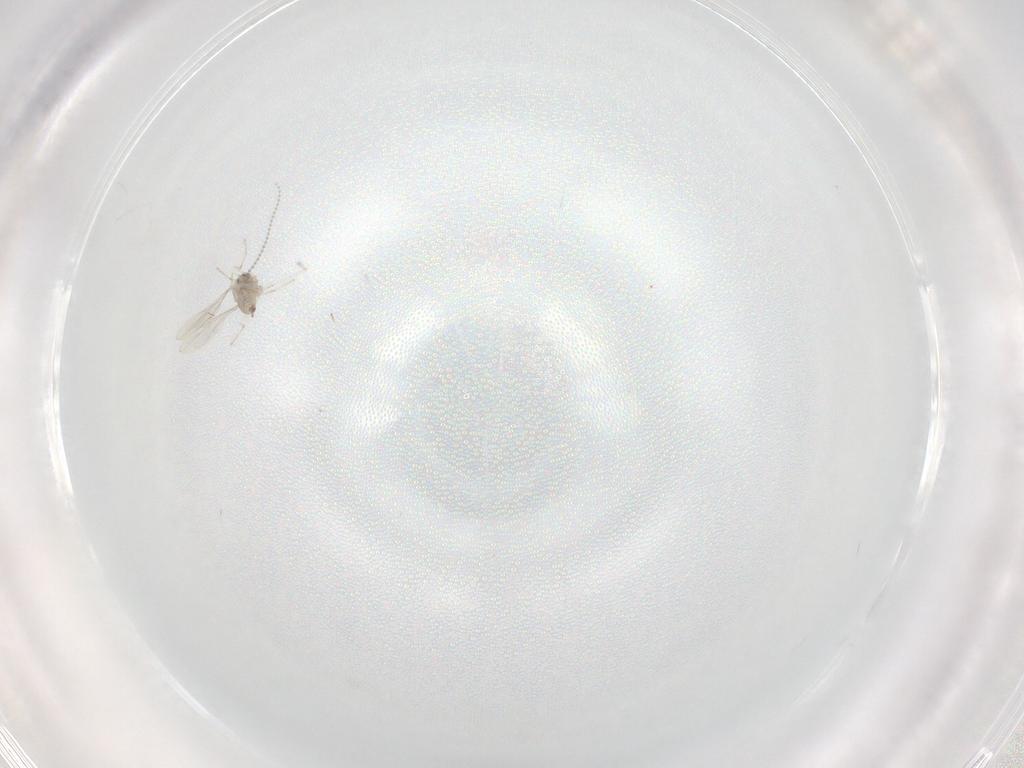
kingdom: Animalia
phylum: Arthropoda
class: Insecta
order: Diptera
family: Cecidomyiidae
